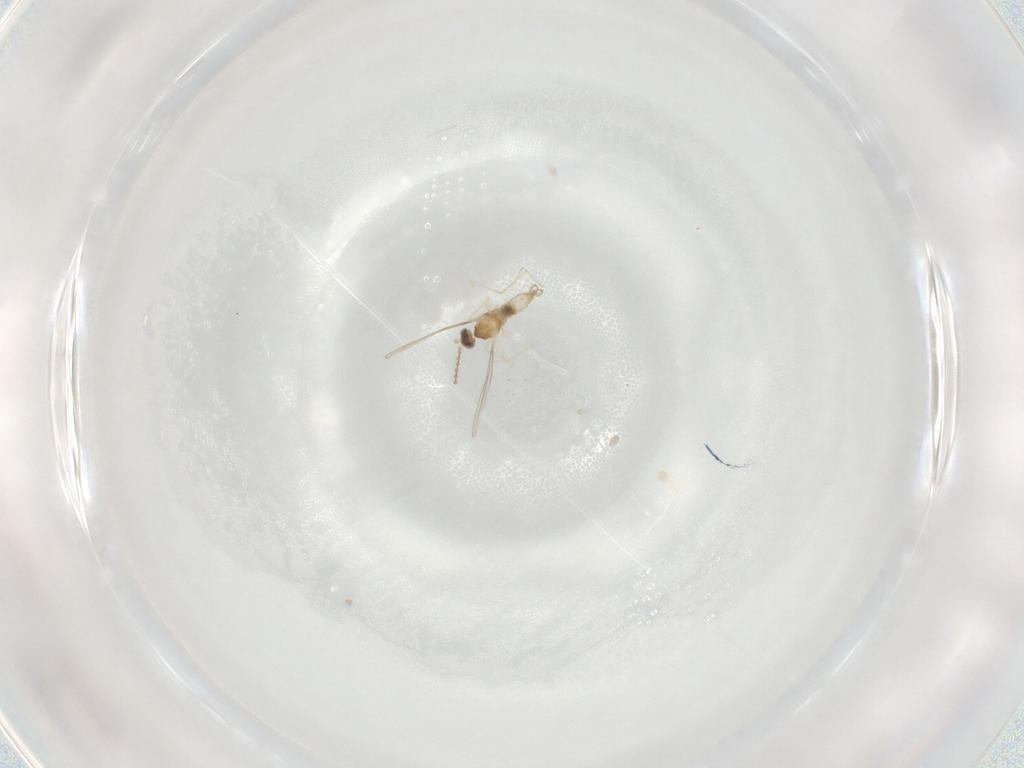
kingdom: Animalia
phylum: Arthropoda
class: Insecta
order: Diptera
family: Cecidomyiidae
